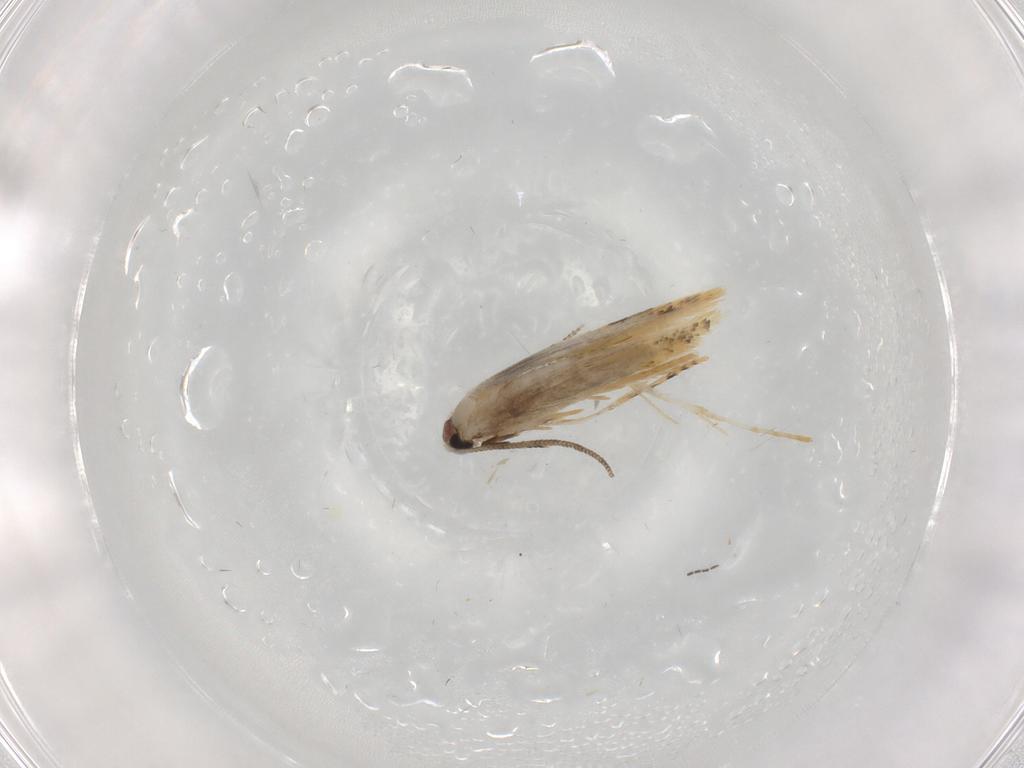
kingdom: Animalia
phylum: Arthropoda
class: Insecta
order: Lepidoptera
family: Tineidae
